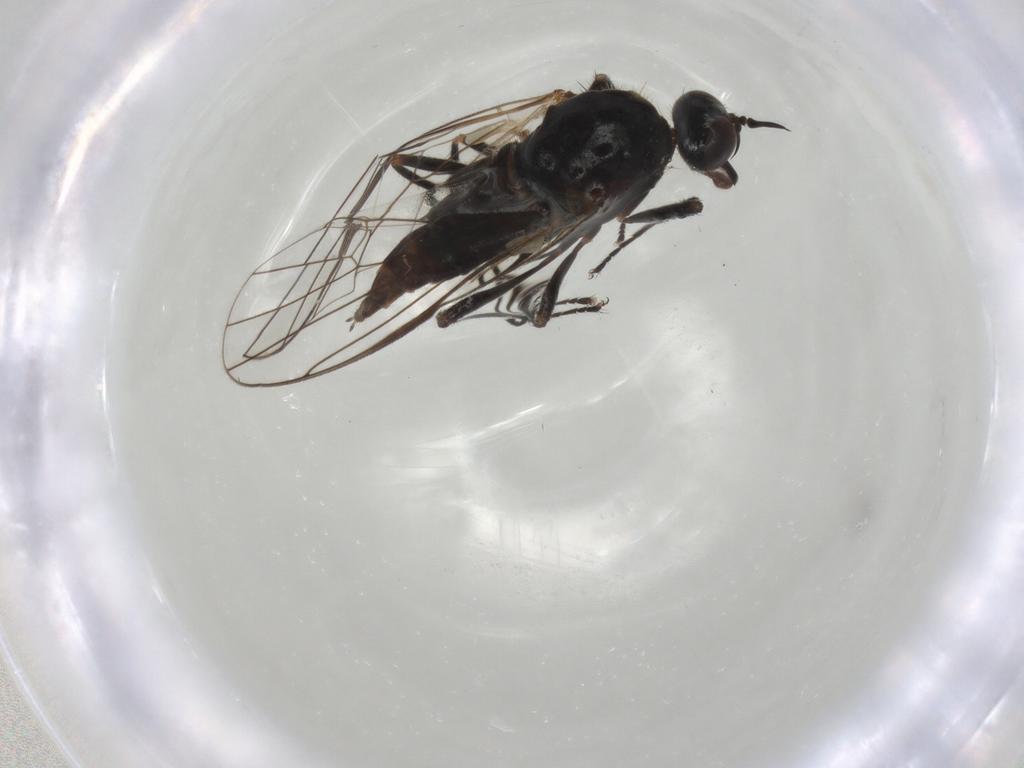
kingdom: Animalia
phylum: Arthropoda
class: Insecta
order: Diptera
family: Empididae
